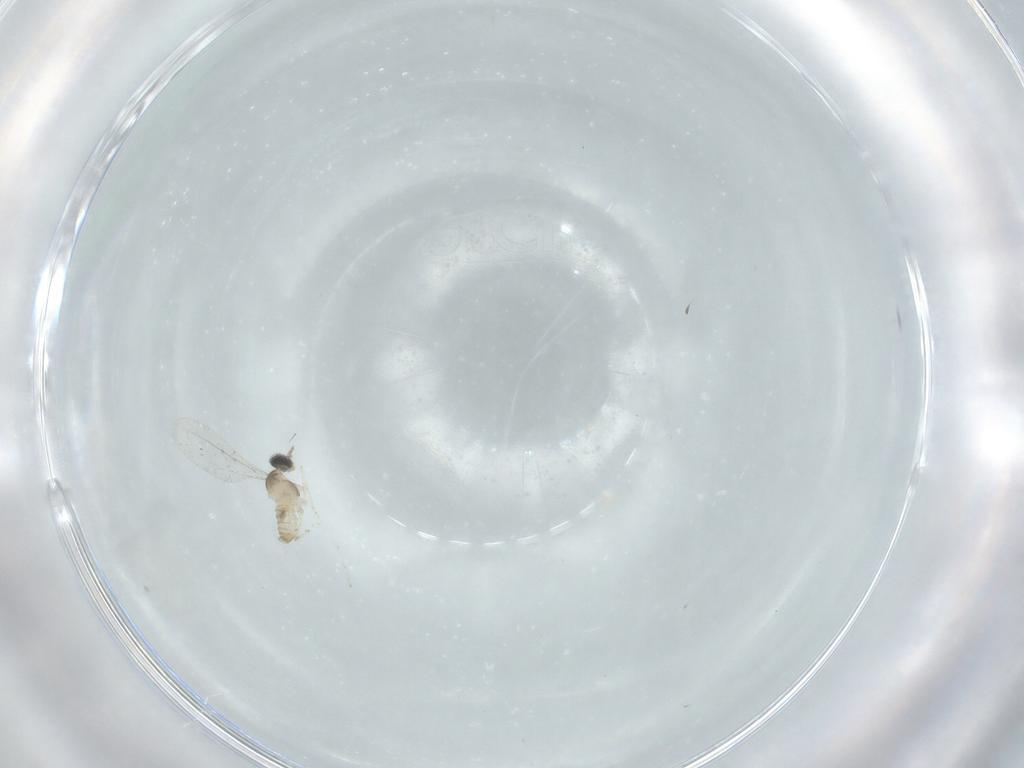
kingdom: Animalia
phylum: Arthropoda
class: Insecta
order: Diptera
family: Cecidomyiidae
